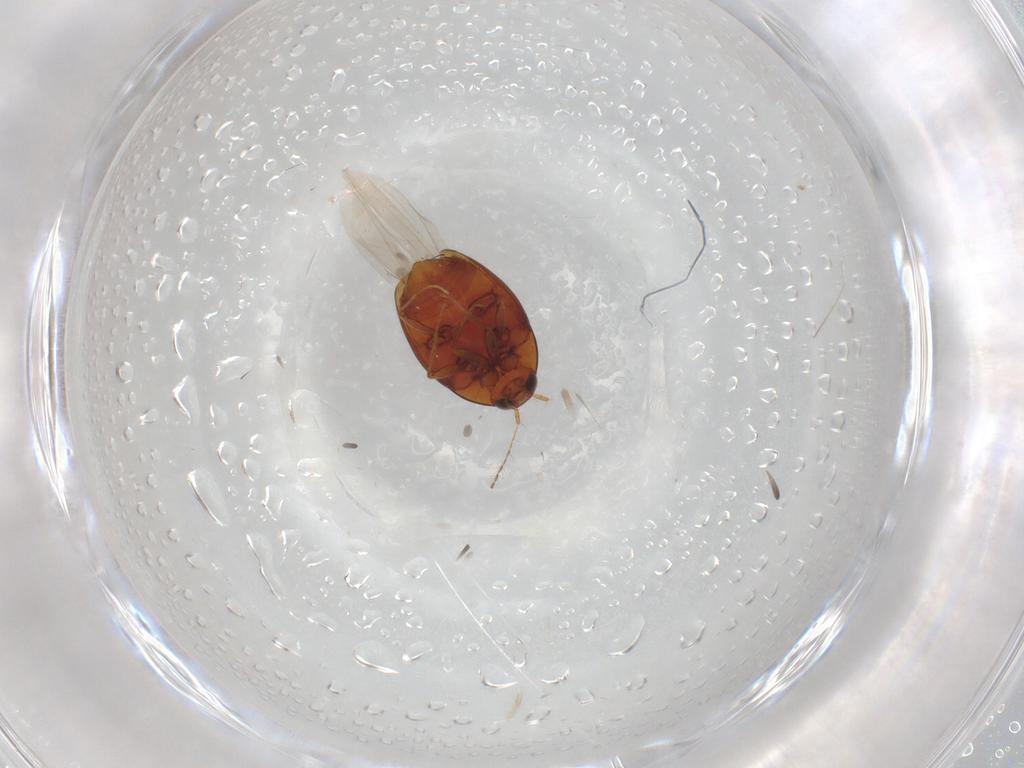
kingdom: Animalia
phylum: Arthropoda
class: Insecta
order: Coleoptera
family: Staphylinidae
